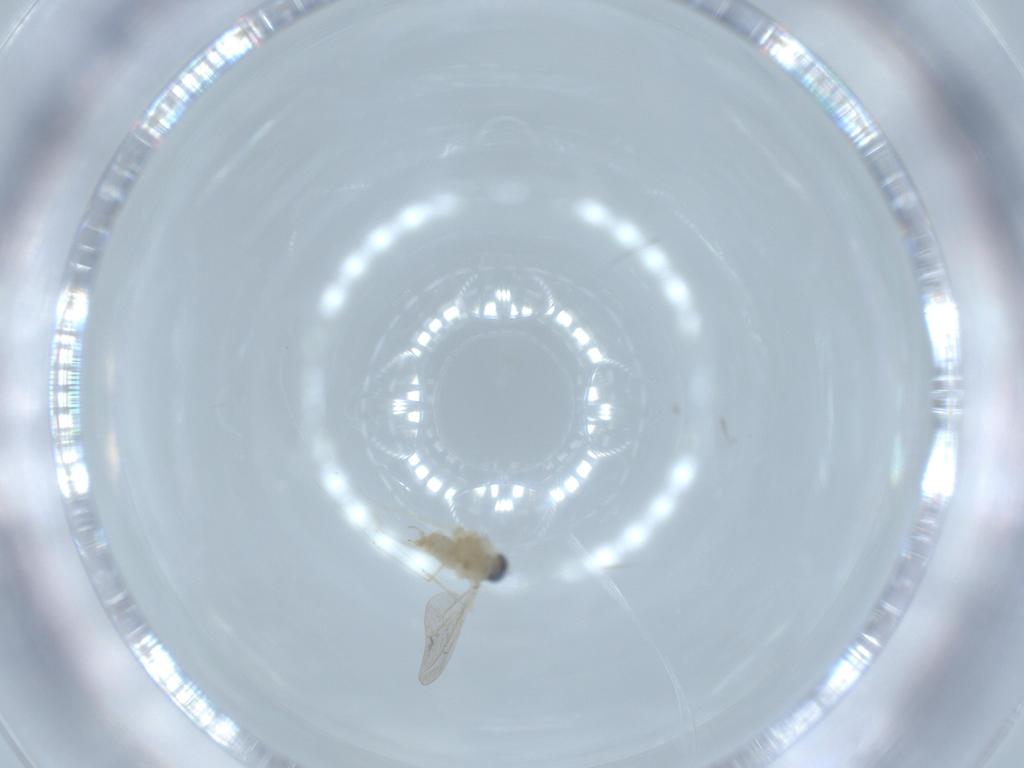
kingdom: Animalia
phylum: Arthropoda
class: Insecta
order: Diptera
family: Cecidomyiidae
